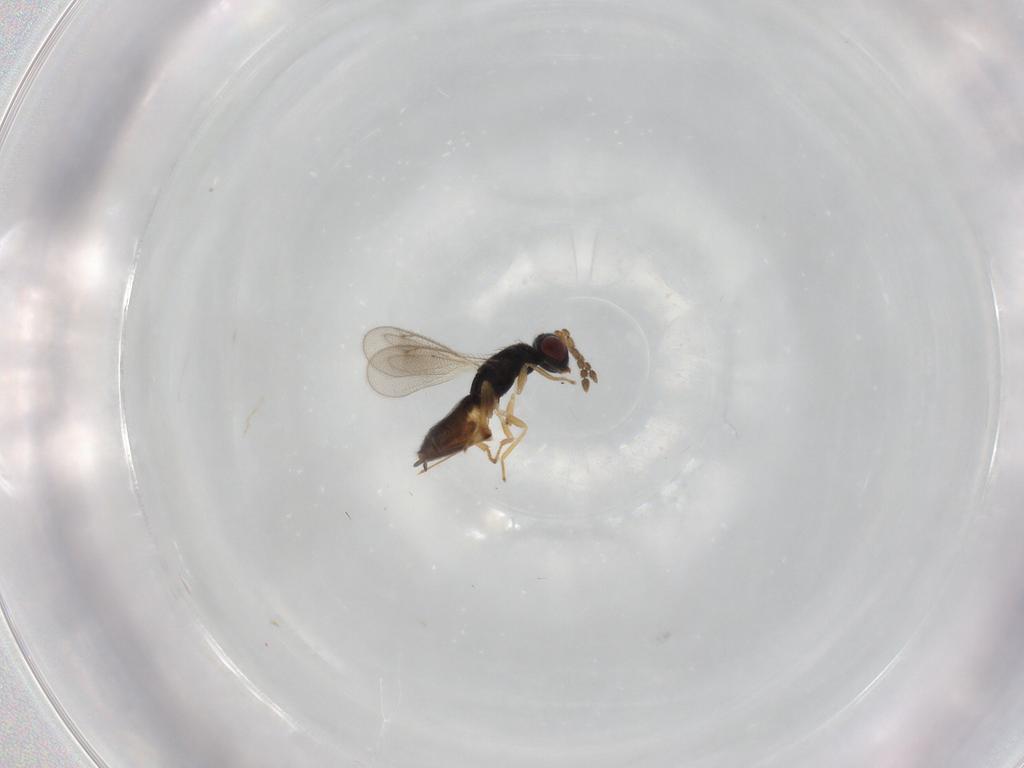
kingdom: Animalia
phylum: Arthropoda
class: Insecta
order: Hymenoptera
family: Eulophidae
